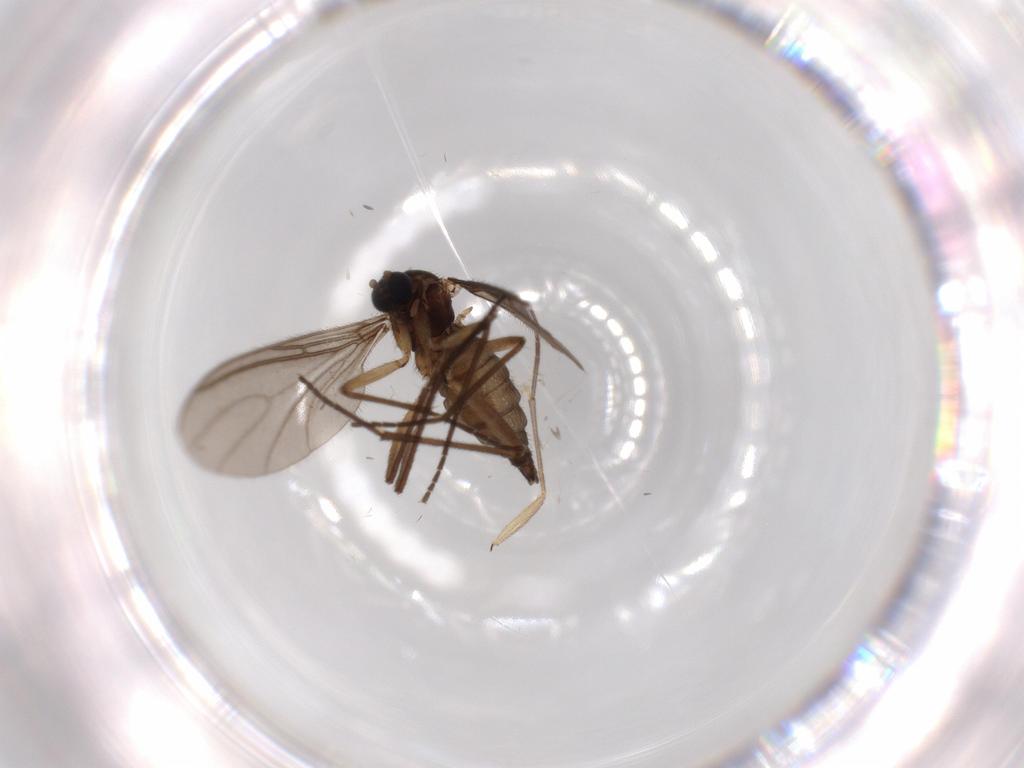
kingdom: Animalia
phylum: Arthropoda
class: Insecta
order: Diptera
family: Sciaridae
